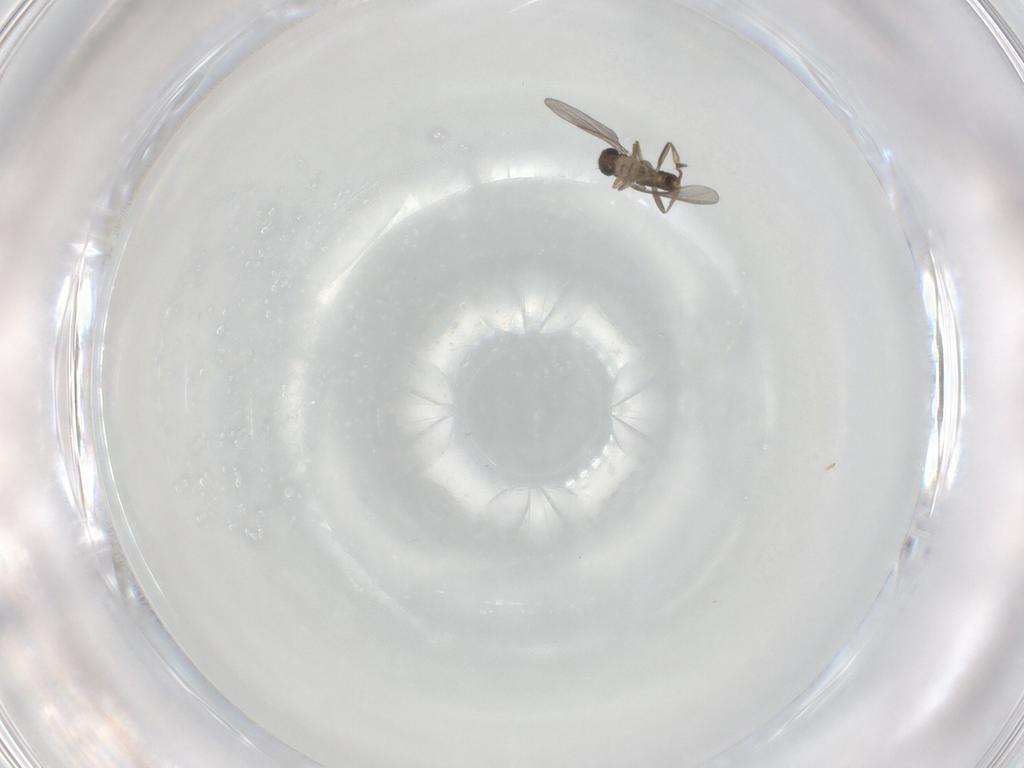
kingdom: Animalia
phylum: Arthropoda
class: Insecta
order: Diptera
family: Phoridae
